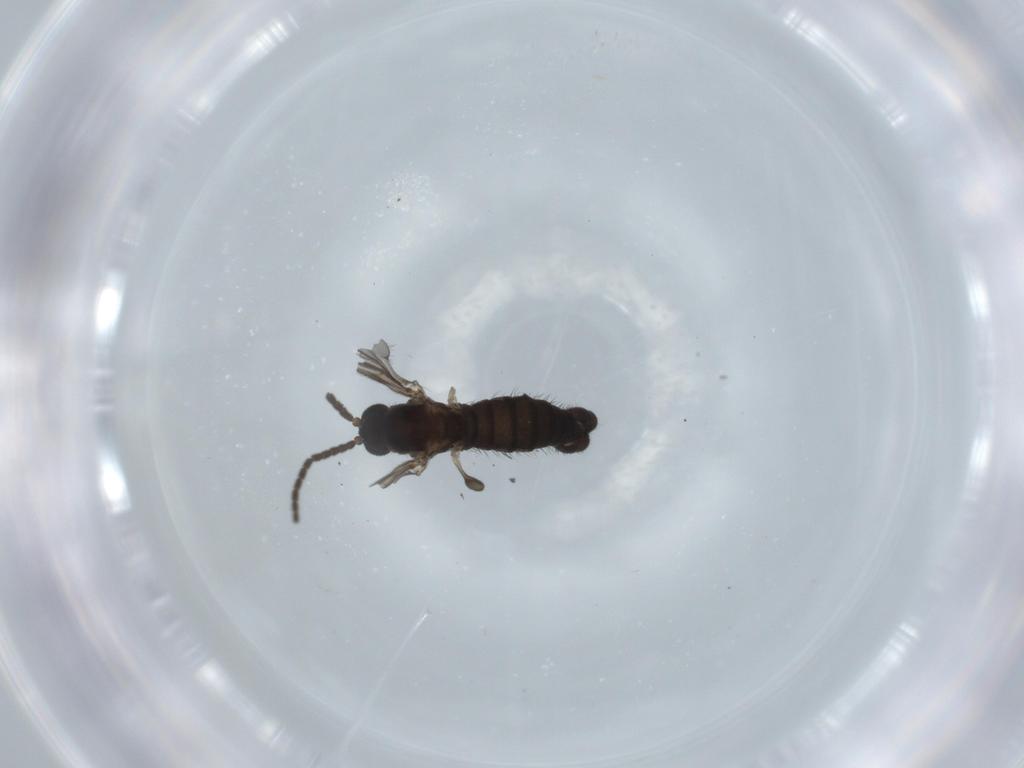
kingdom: Animalia
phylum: Arthropoda
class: Insecta
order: Diptera
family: Sciaridae
